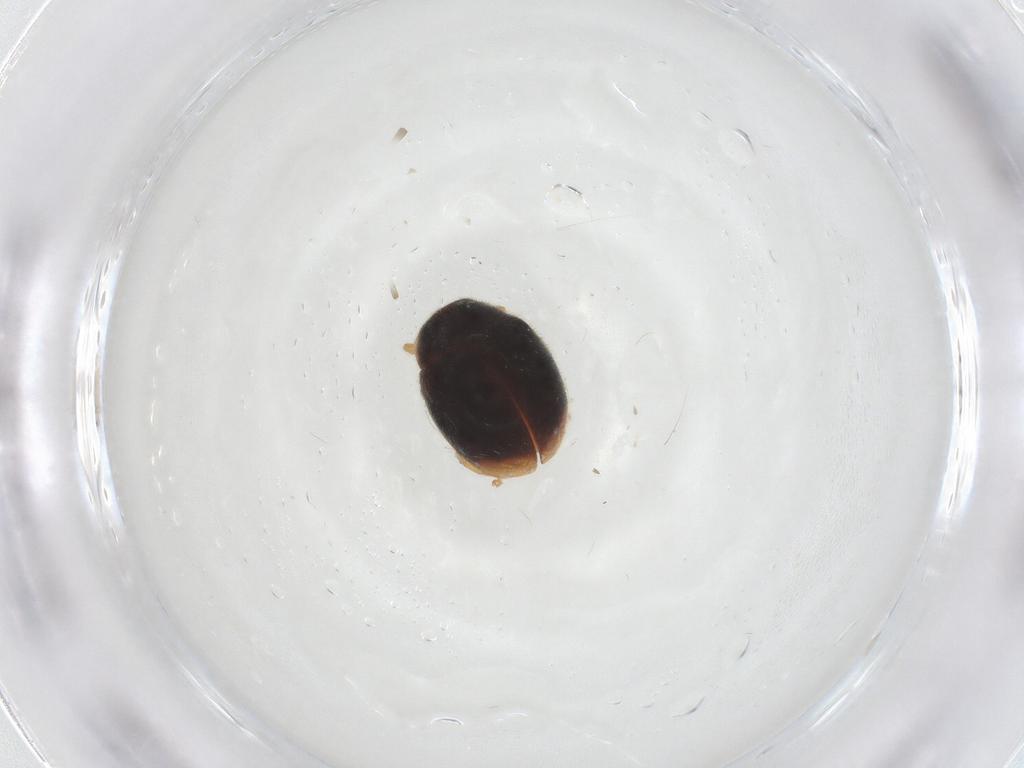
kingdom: Animalia
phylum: Arthropoda
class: Insecta
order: Coleoptera
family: Coccinellidae
